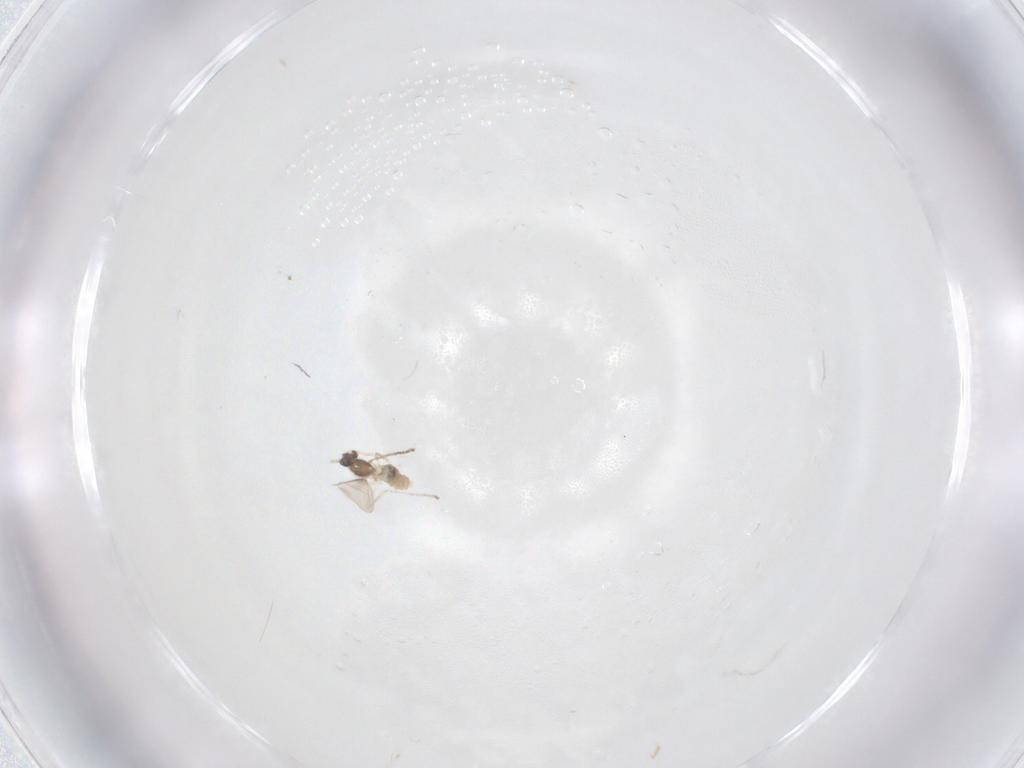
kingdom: Animalia
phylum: Arthropoda
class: Insecta
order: Diptera
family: Cecidomyiidae
